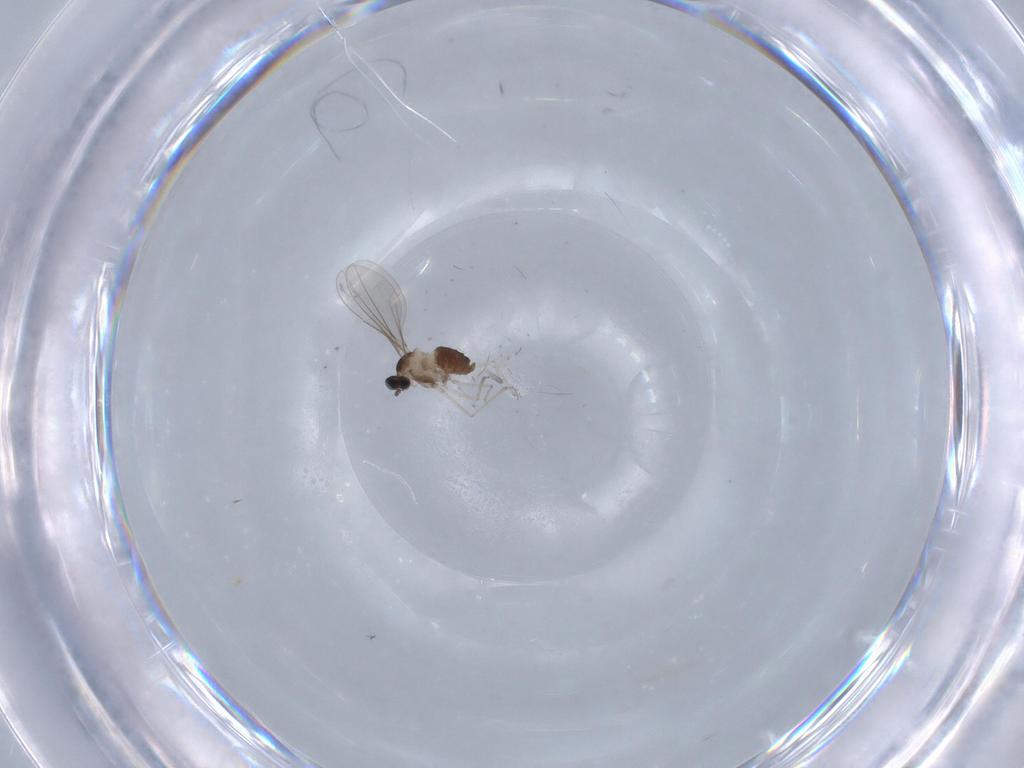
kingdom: Animalia
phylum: Arthropoda
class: Insecta
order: Diptera
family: Cecidomyiidae
